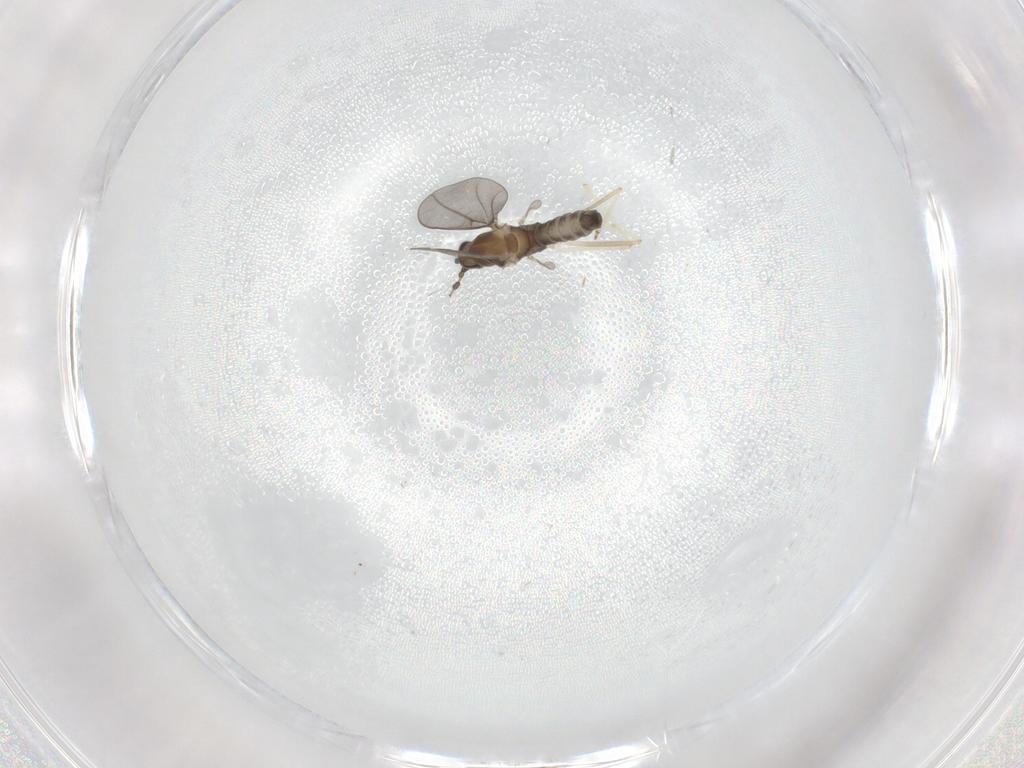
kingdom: Animalia
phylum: Arthropoda
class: Insecta
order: Diptera
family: Cecidomyiidae
